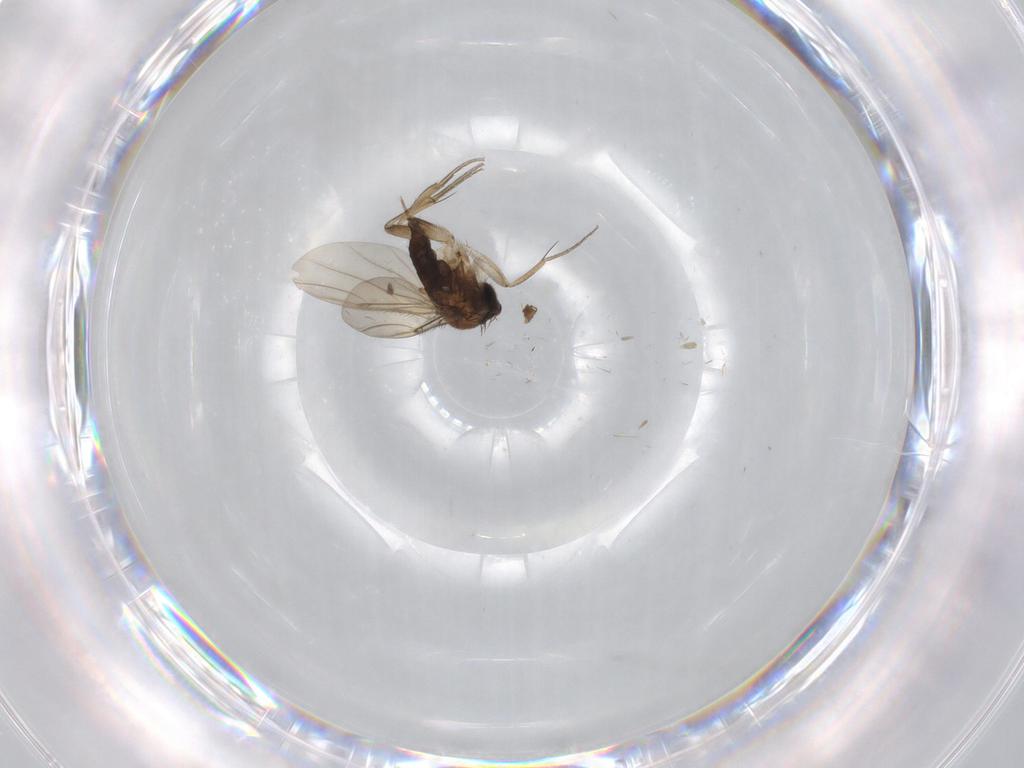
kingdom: Animalia
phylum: Arthropoda
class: Insecta
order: Diptera
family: Phoridae
